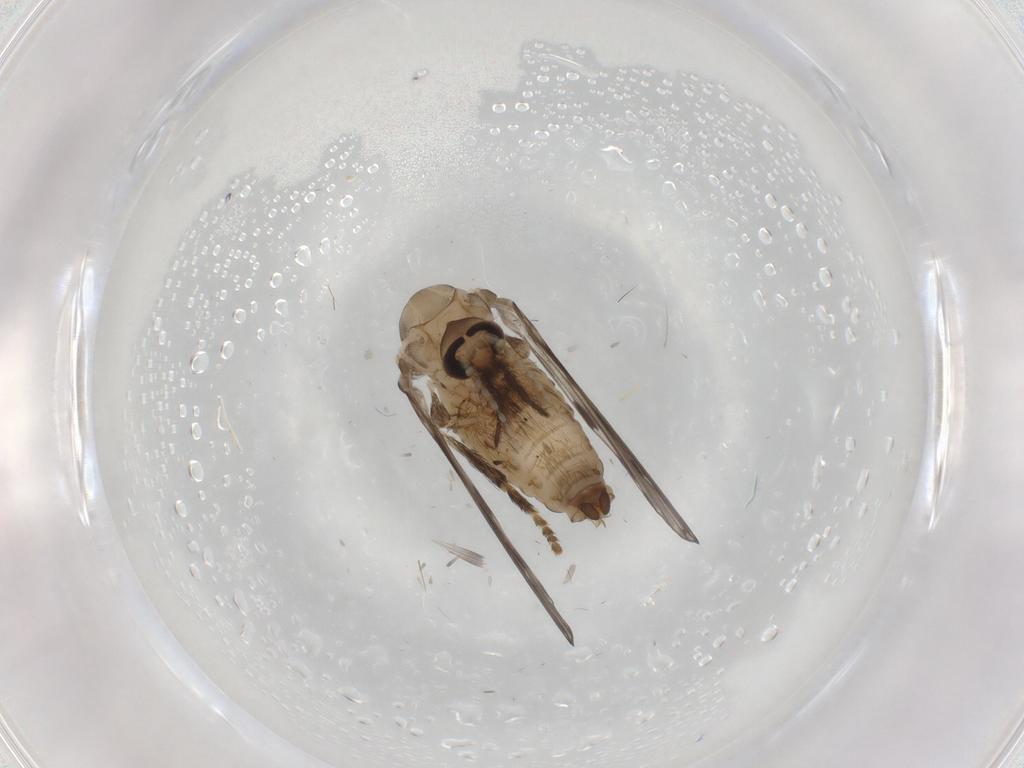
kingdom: Animalia
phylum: Arthropoda
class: Insecta
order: Diptera
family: Psychodidae
